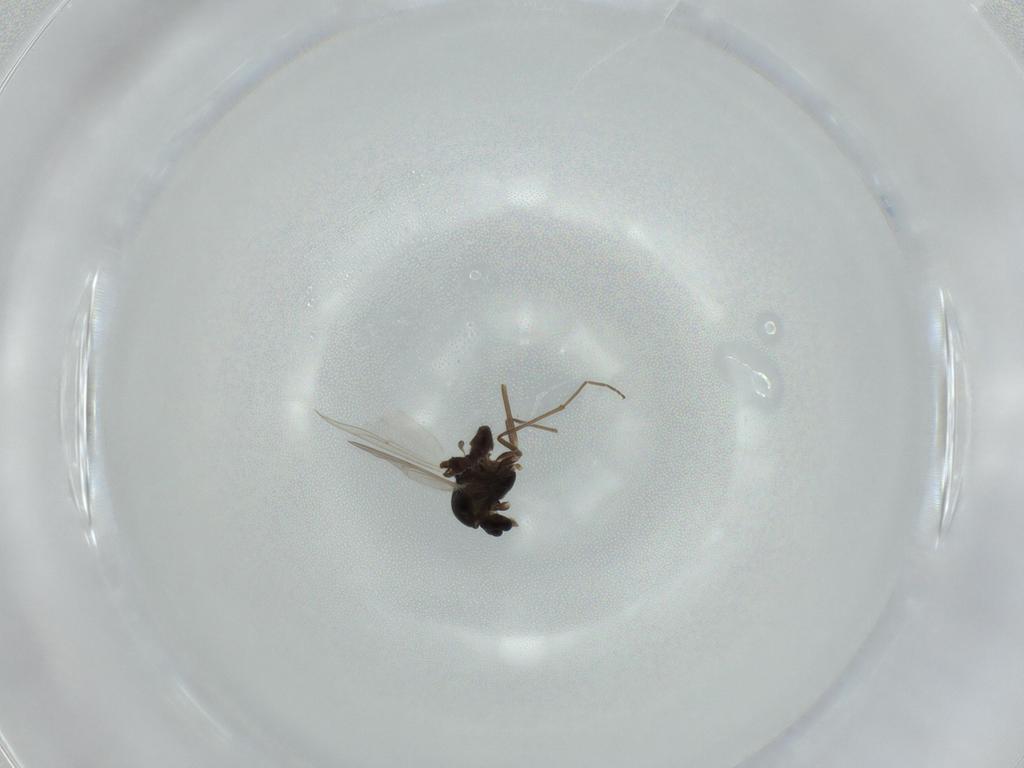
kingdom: Animalia
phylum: Arthropoda
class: Insecta
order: Diptera
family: Chironomidae
